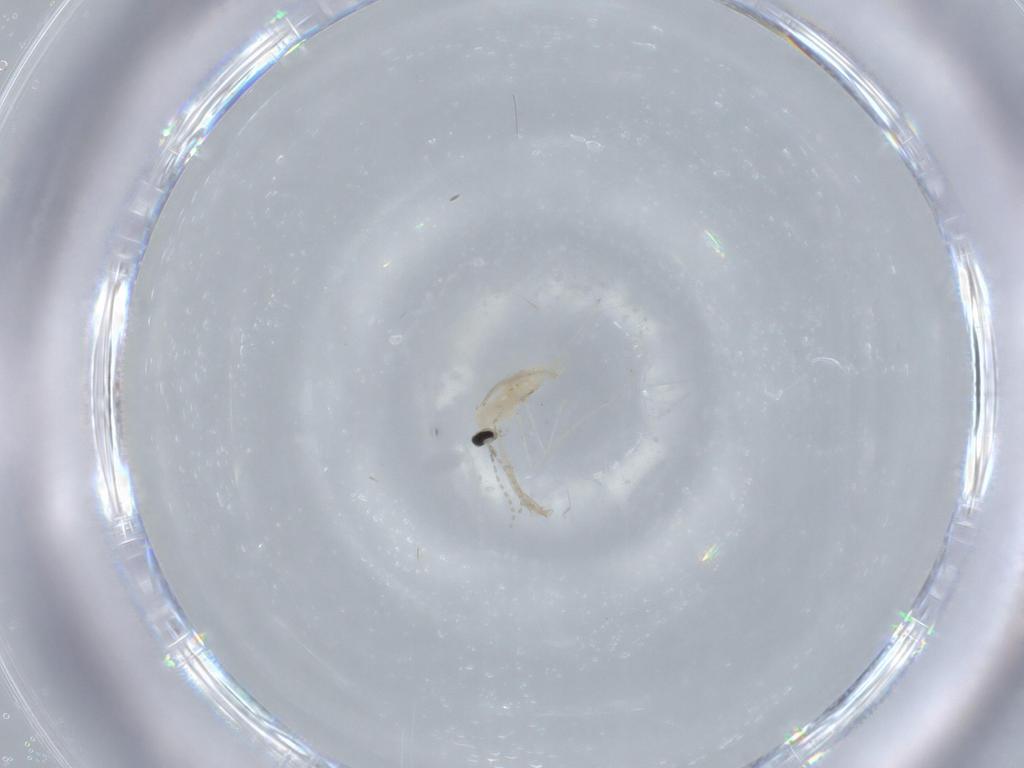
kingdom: Animalia
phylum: Arthropoda
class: Insecta
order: Diptera
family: Cecidomyiidae
